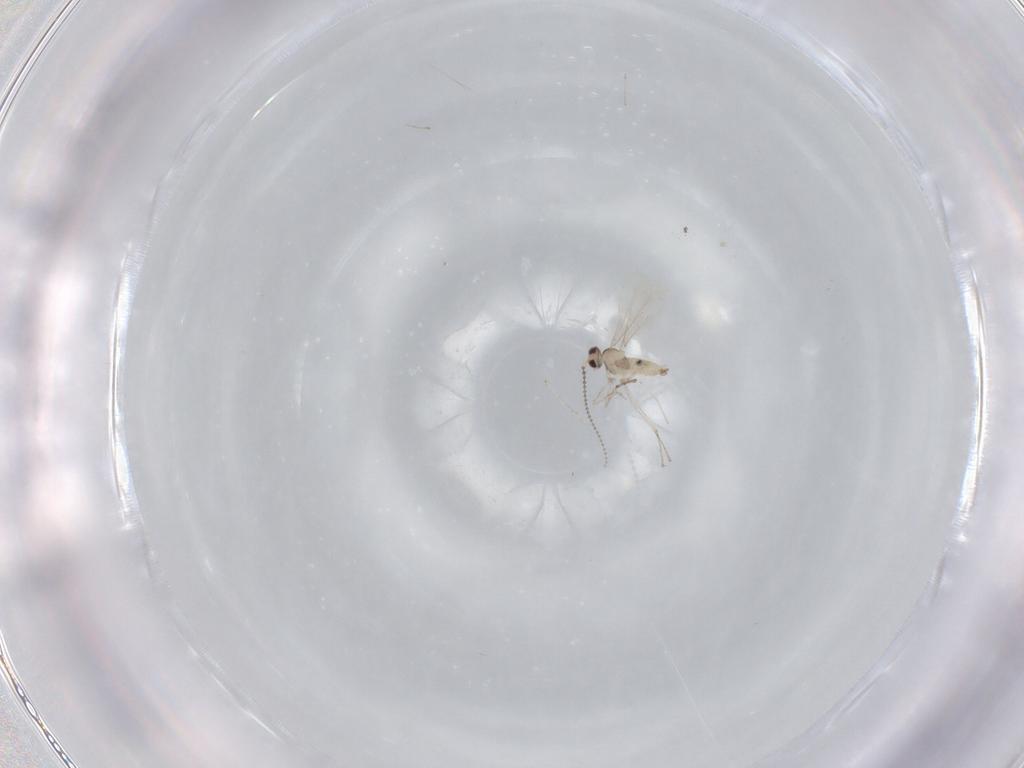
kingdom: Animalia
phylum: Arthropoda
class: Insecta
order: Diptera
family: Cecidomyiidae
